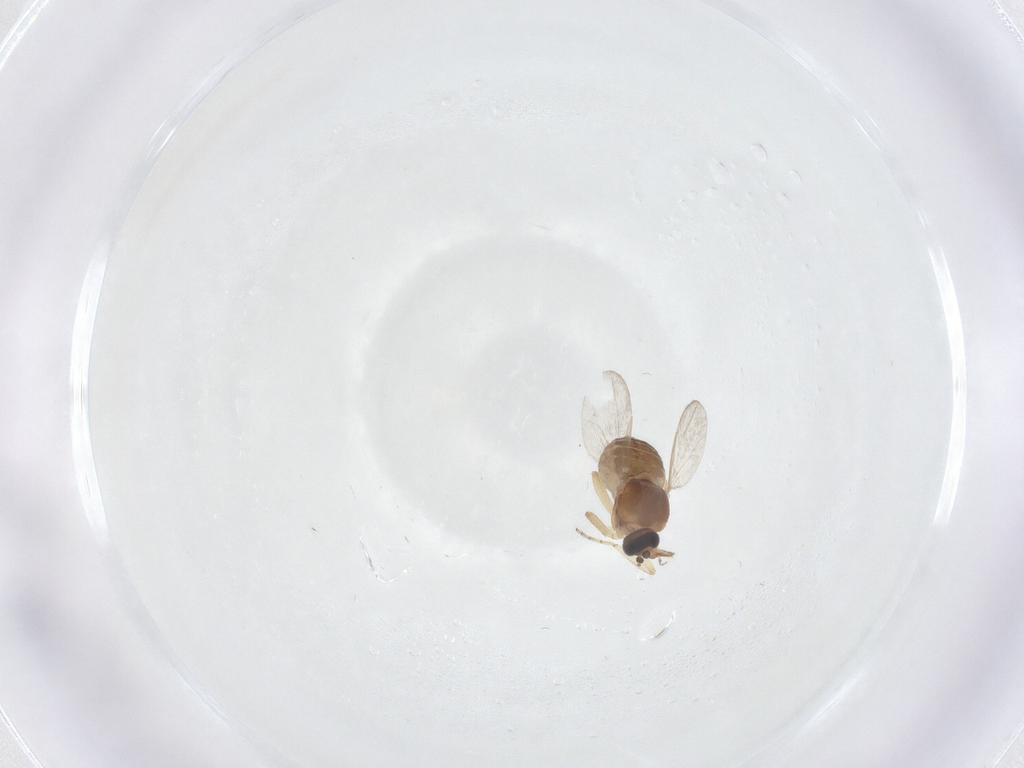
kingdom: Animalia
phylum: Arthropoda
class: Insecta
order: Diptera
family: Ceratopogonidae
